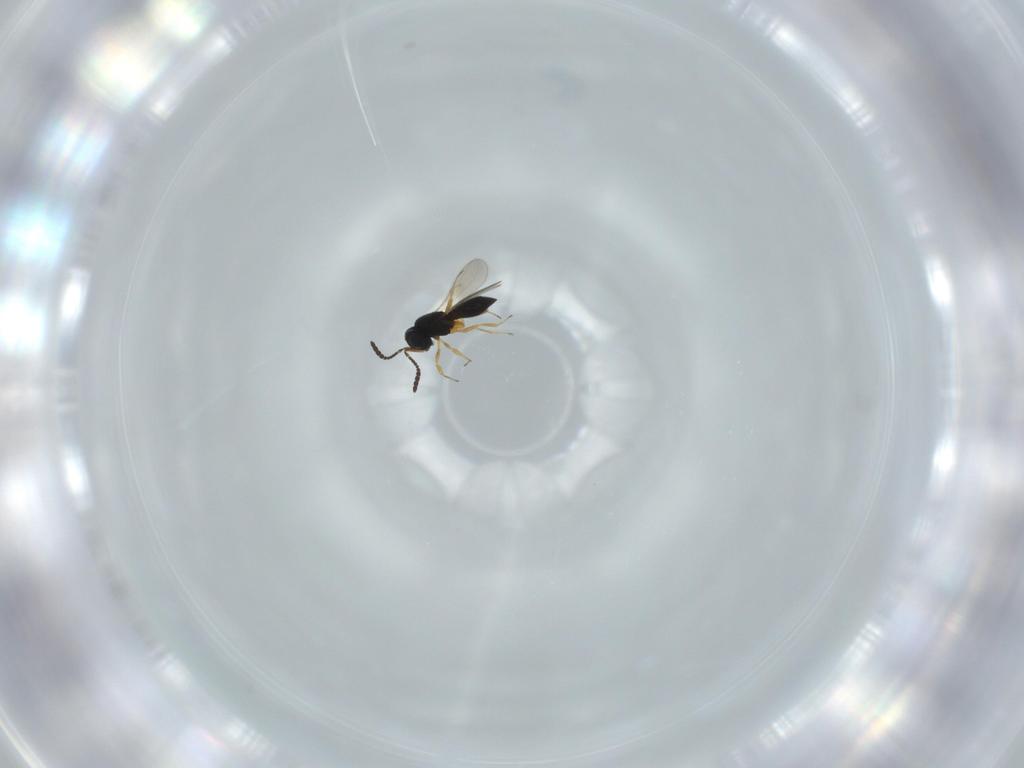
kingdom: Animalia
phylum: Arthropoda
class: Insecta
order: Hymenoptera
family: Scelionidae
